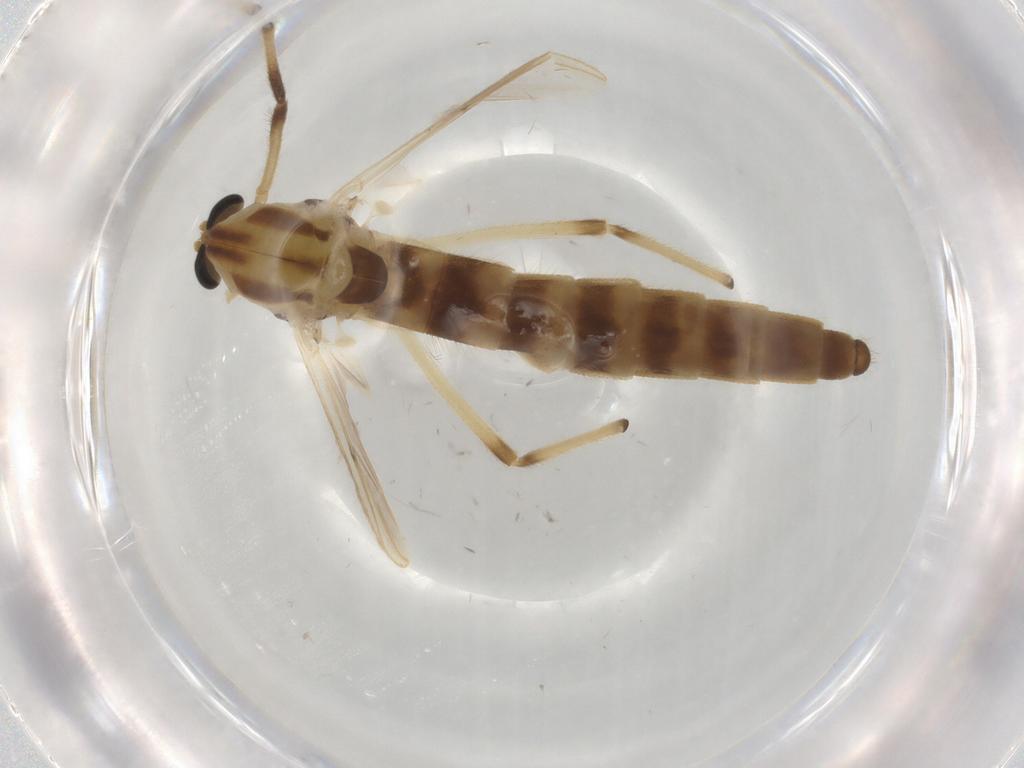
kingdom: Animalia
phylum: Arthropoda
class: Insecta
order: Diptera
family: Chironomidae
